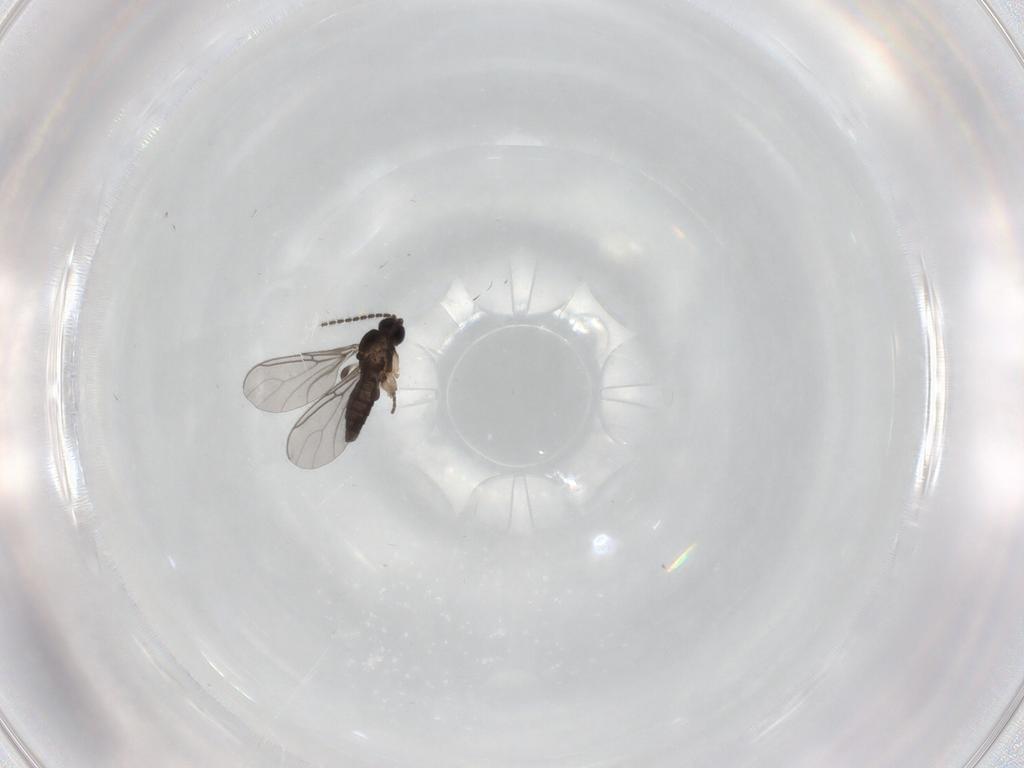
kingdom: Animalia
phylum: Arthropoda
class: Insecta
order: Diptera
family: Cecidomyiidae
